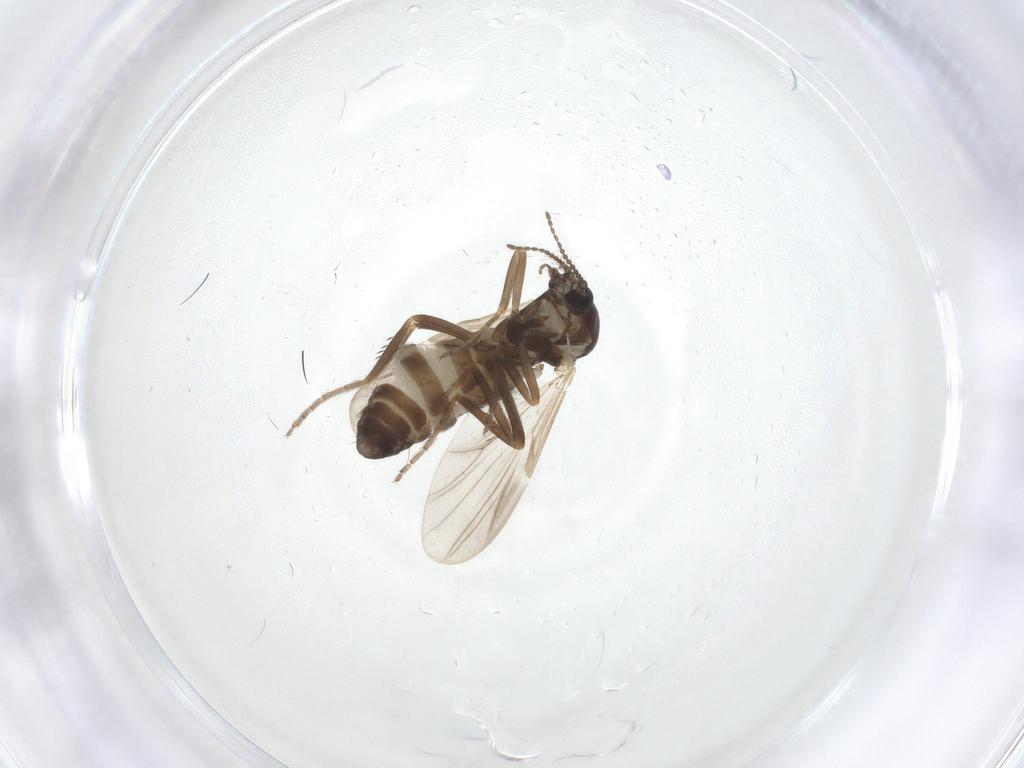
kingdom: Animalia
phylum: Arthropoda
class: Insecta
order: Diptera
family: Ceratopogonidae
